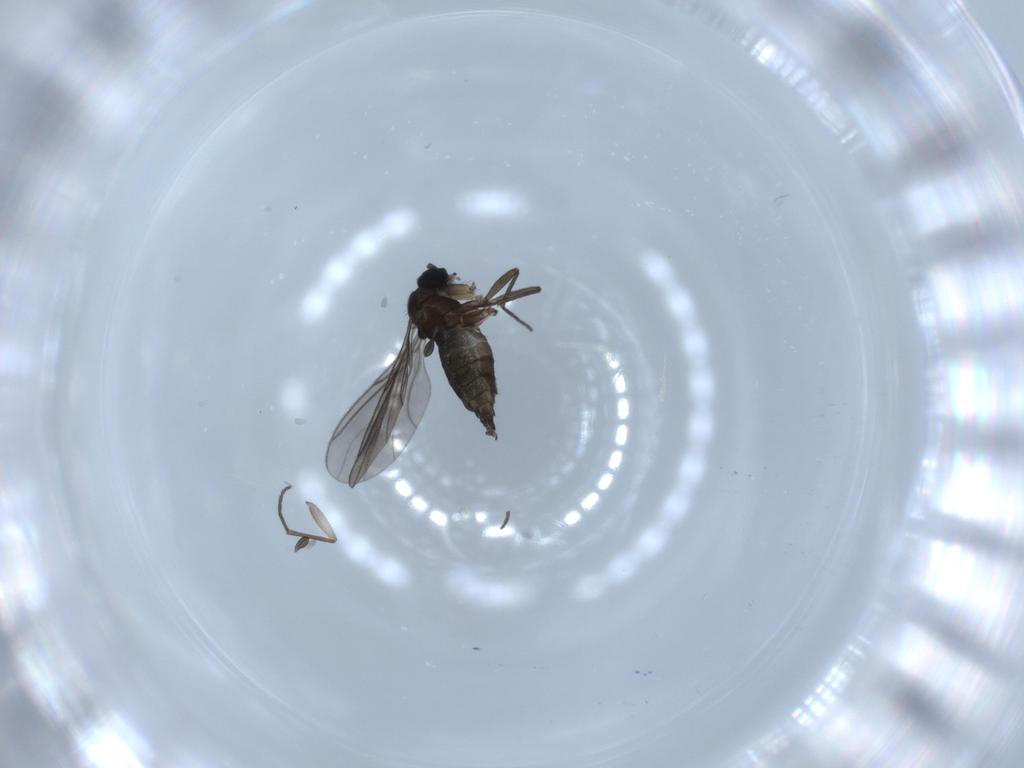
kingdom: Animalia
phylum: Arthropoda
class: Insecta
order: Diptera
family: Sciaridae
